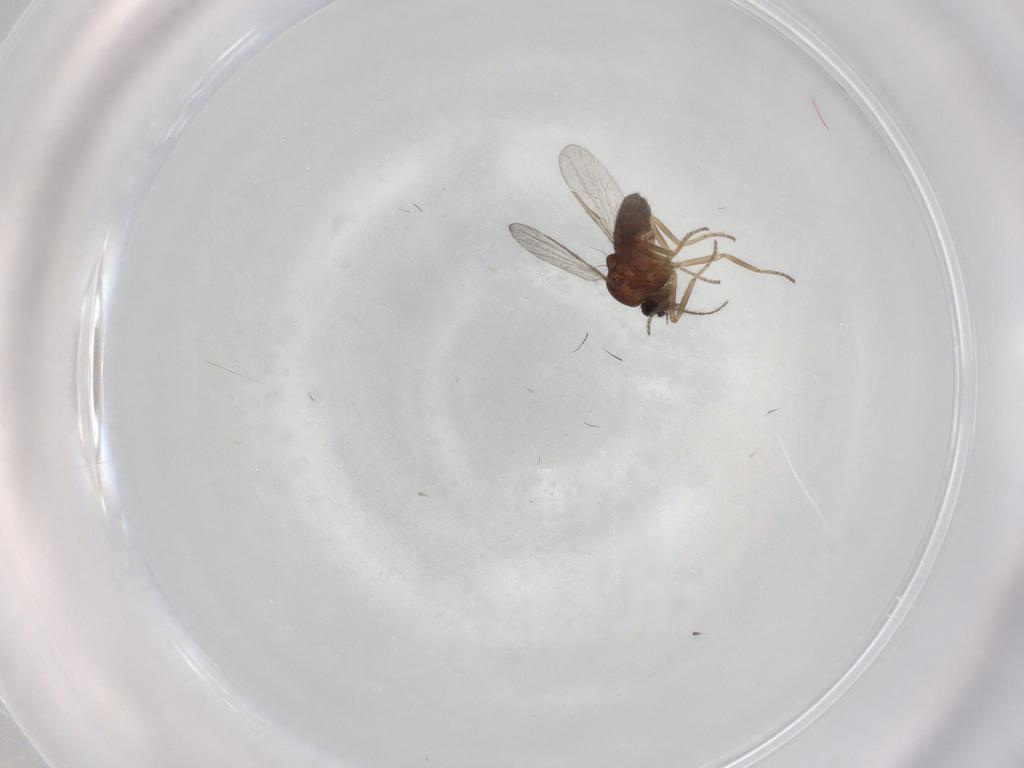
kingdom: Animalia
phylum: Arthropoda
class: Insecta
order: Diptera
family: Ceratopogonidae
